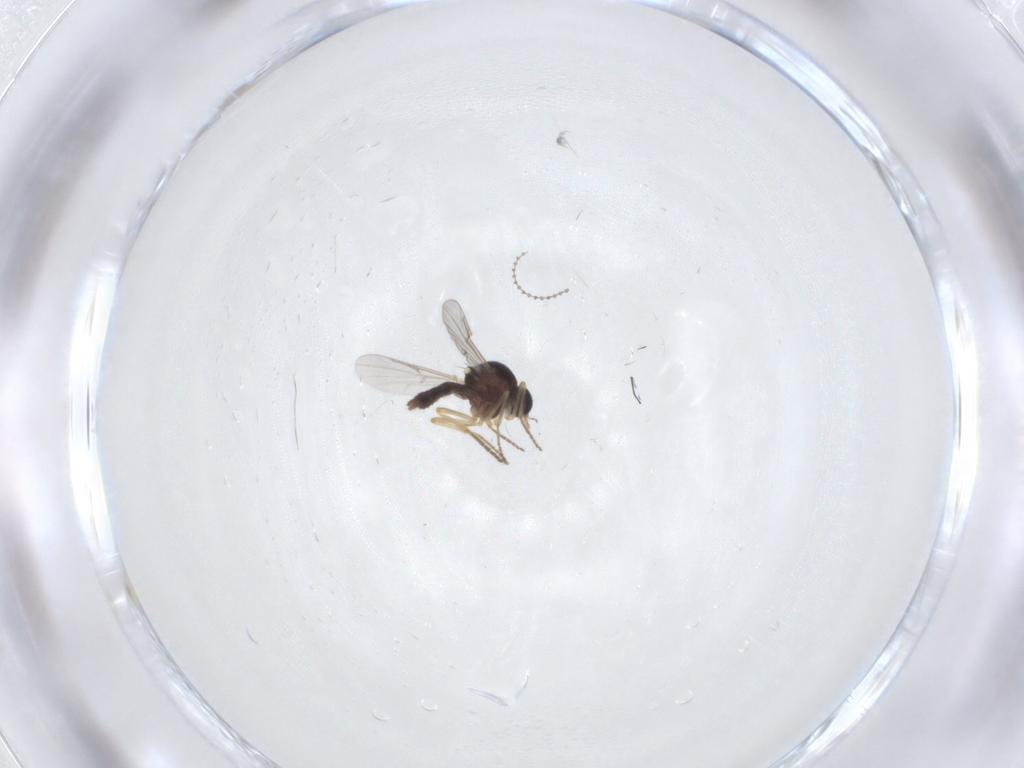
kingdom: Animalia
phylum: Arthropoda
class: Insecta
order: Diptera
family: Ceratopogonidae
